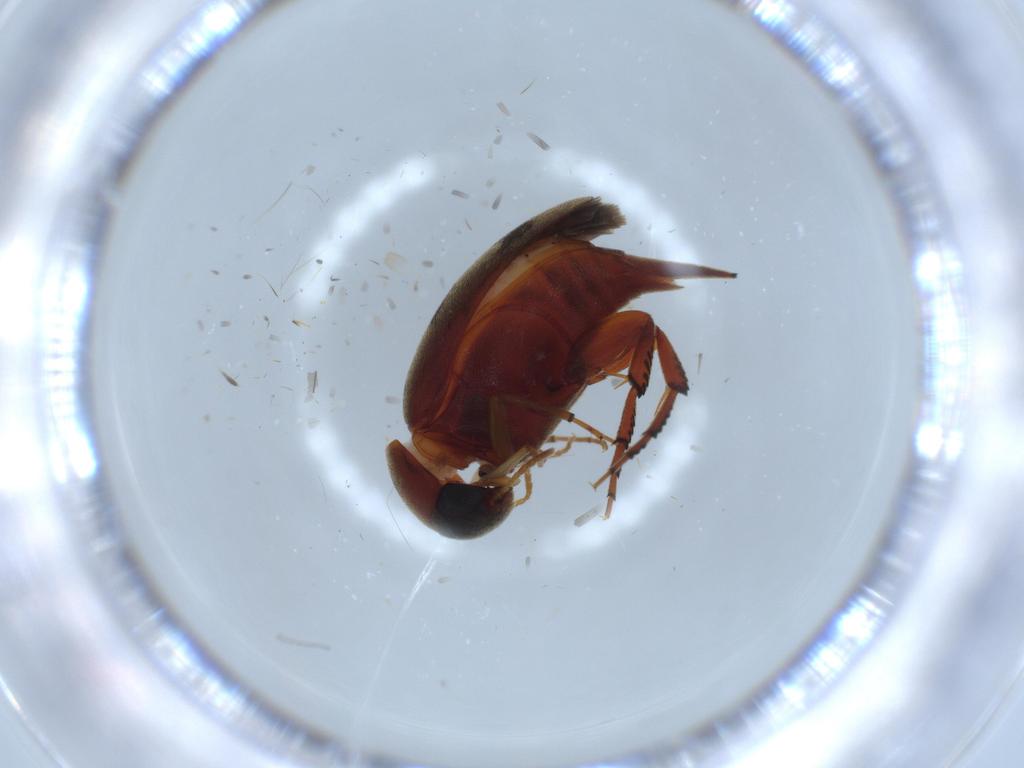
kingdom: Animalia
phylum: Arthropoda
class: Insecta
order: Coleoptera
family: Mordellidae
